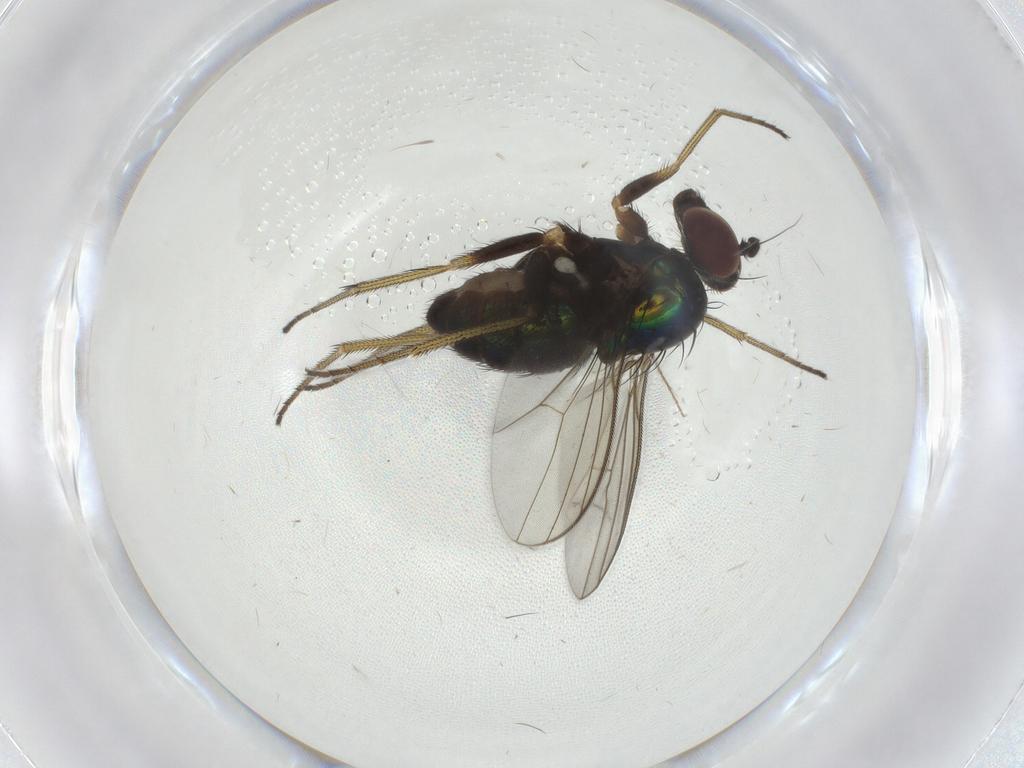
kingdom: Animalia
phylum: Arthropoda
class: Insecta
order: Diptera
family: Dolichopodidae
